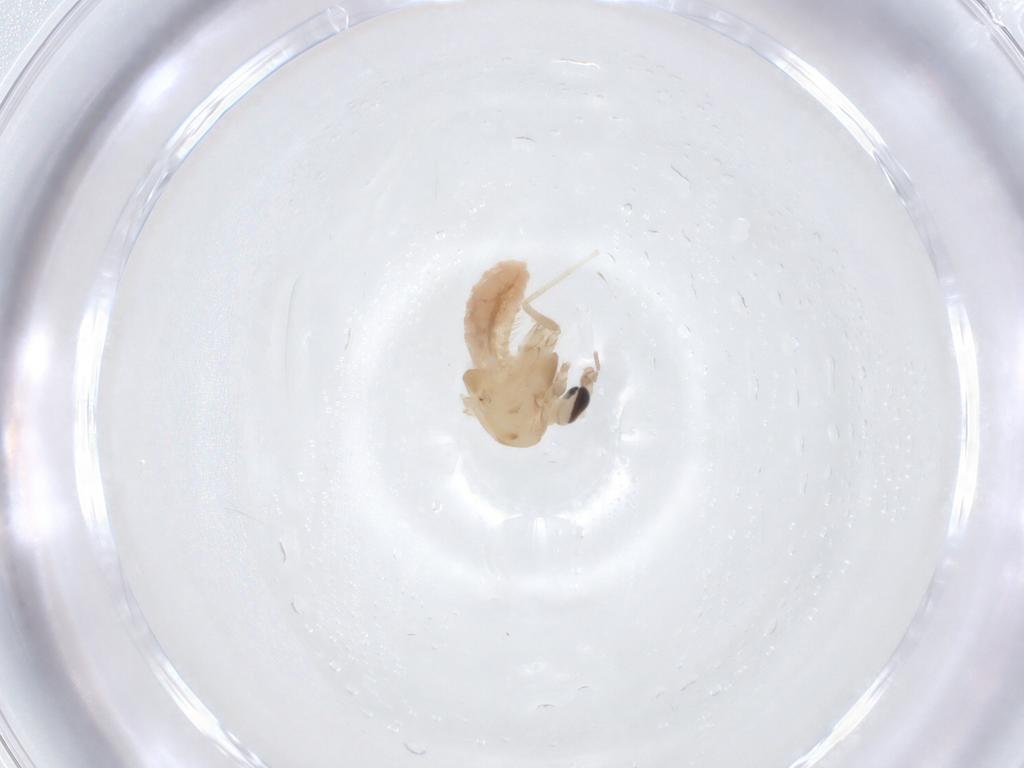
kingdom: Animalia
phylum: Arthropoda
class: Insecta
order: Diptera
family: Chironomidae
